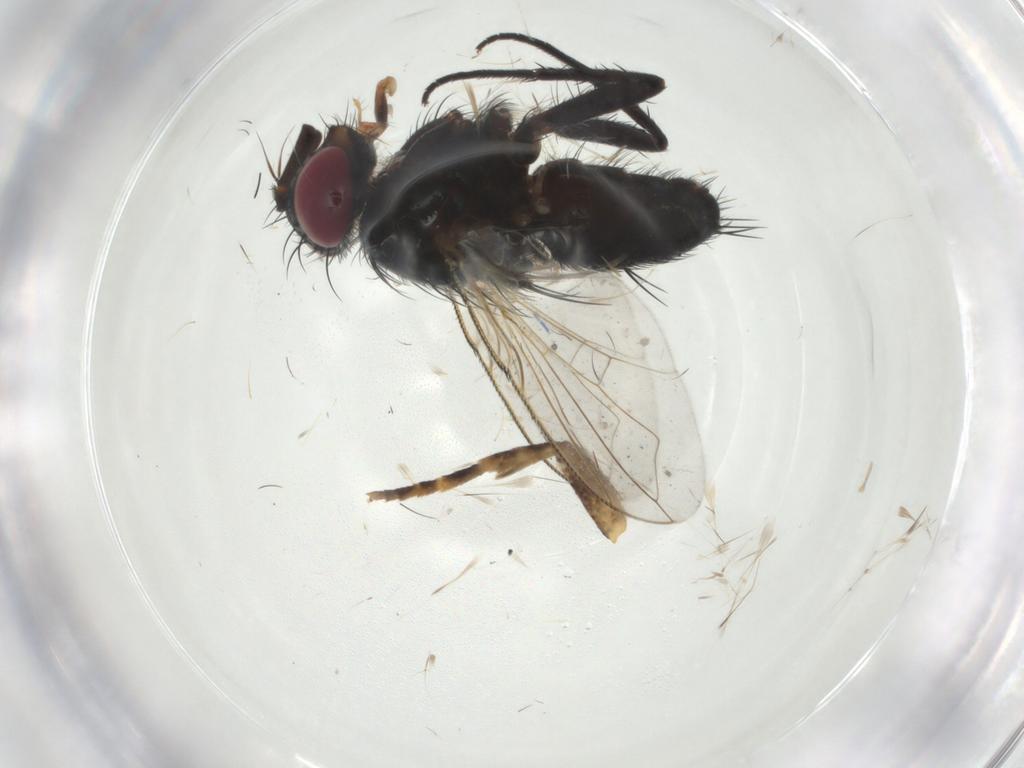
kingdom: Animalia
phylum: Arthropoda
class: Insecta
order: Diptera
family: Tachinidae
